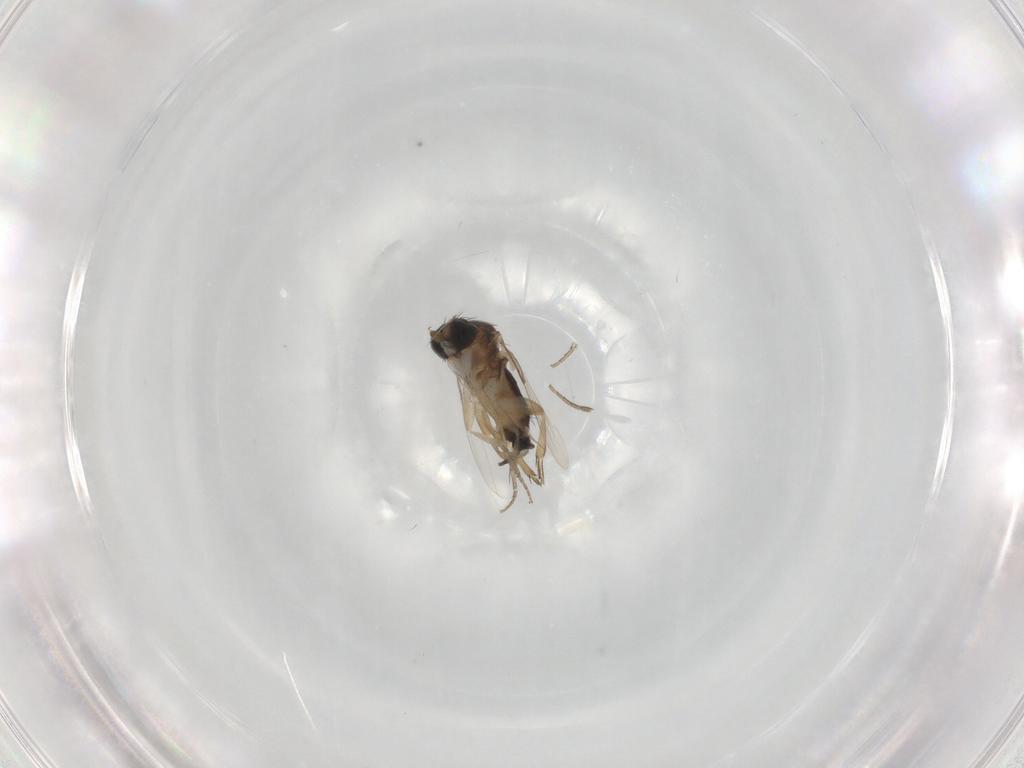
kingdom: Animalia
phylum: Arthropoda
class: Insecta
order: Diptera
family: Phoridae
